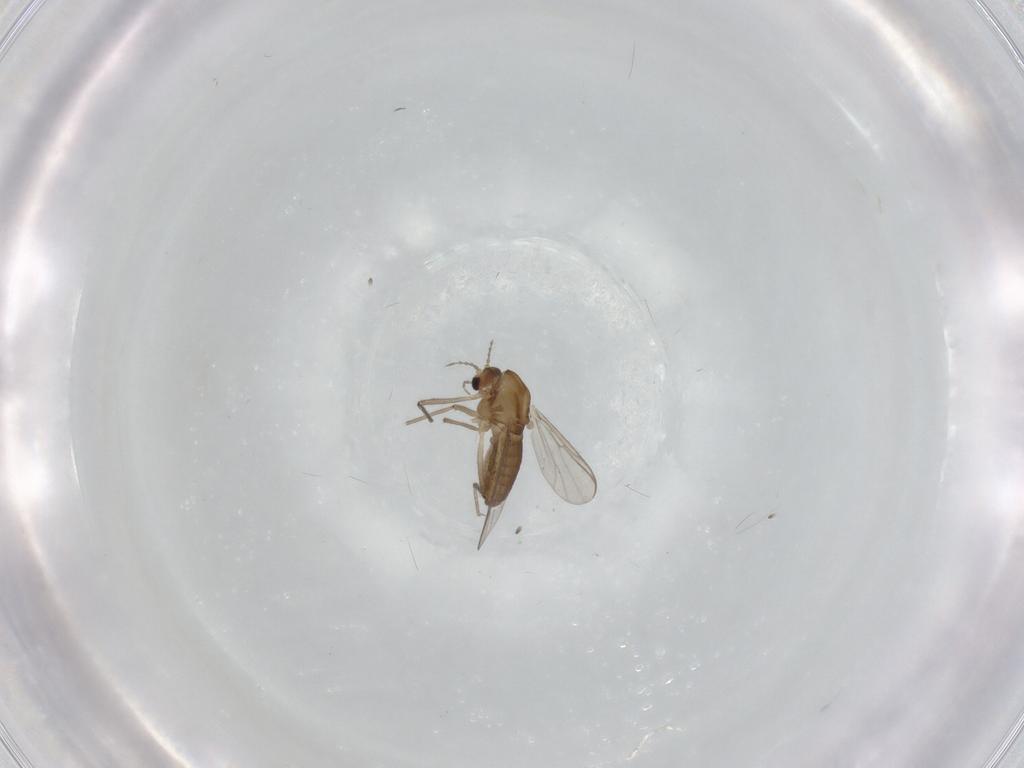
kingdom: Animalia
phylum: Arthropoda
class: Insecta
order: Diptera
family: Chironomidae
